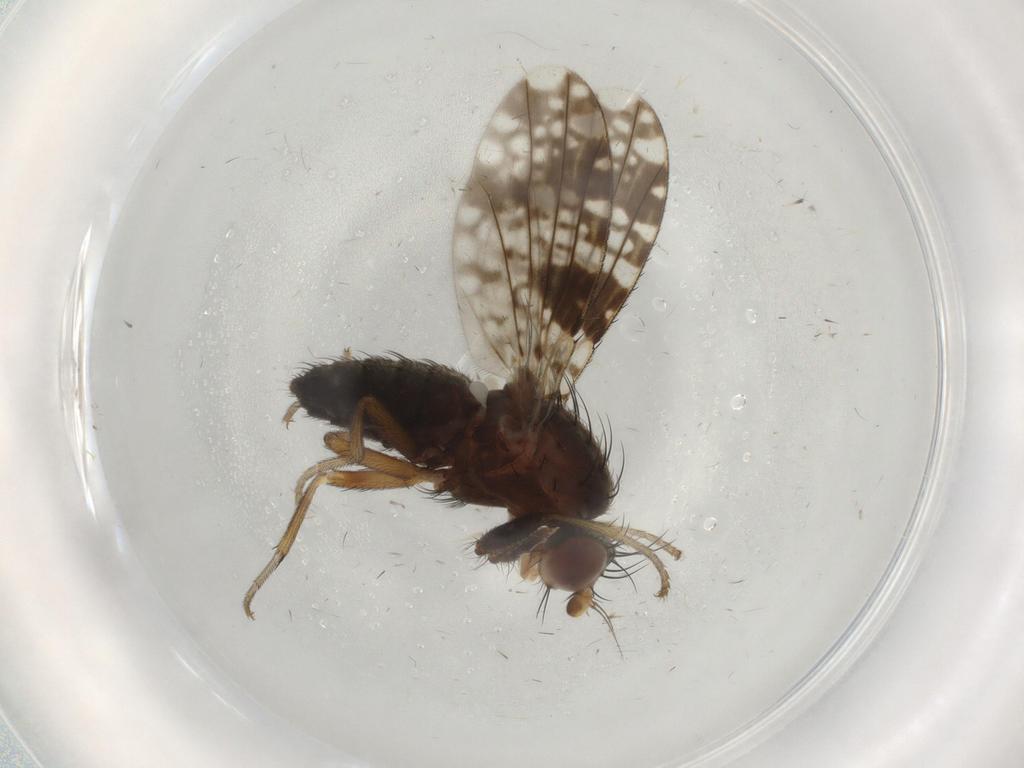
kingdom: Animalia
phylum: Arthropoda
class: Insecta
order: Diptera
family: Tephritidae
